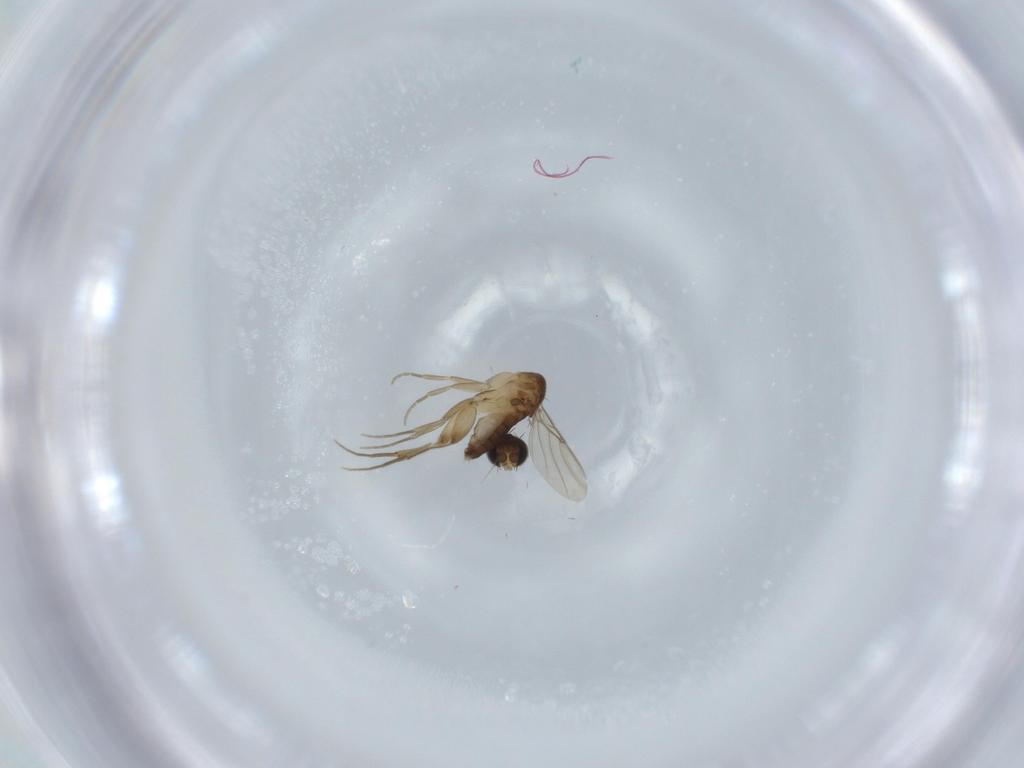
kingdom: Animalia
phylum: Arthropoda
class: Insecta
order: Diptera
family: Phoridae
